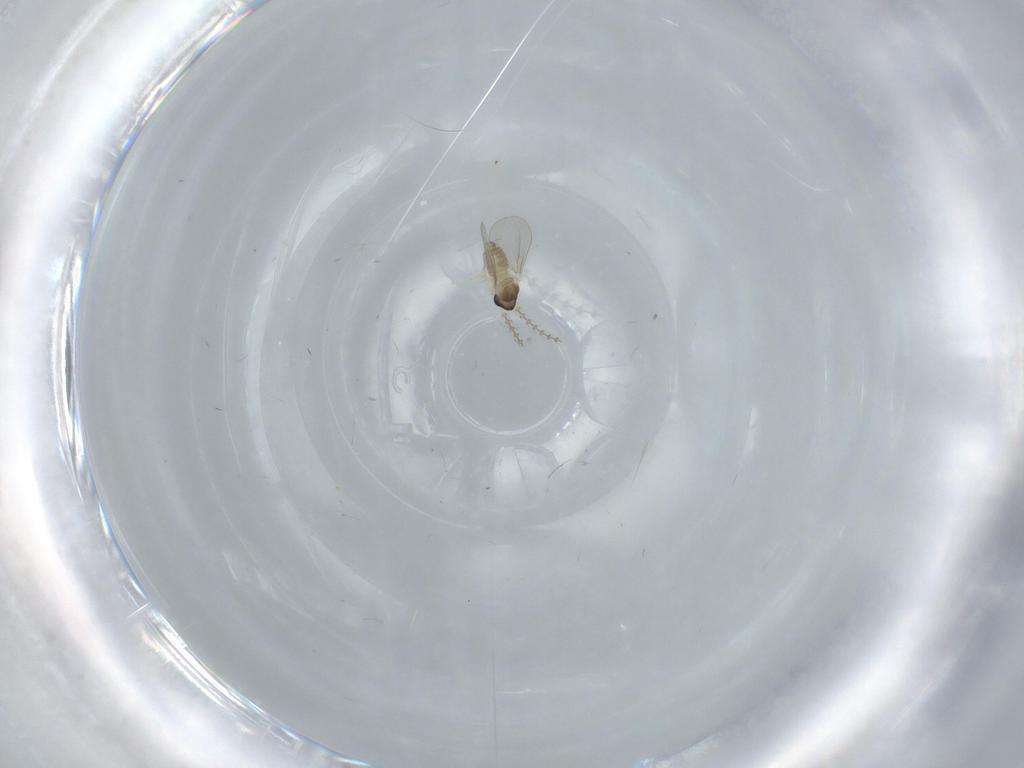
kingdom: Animalia
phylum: Arthropoda
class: Insecta
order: Diptera
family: Cecidomyiidae
